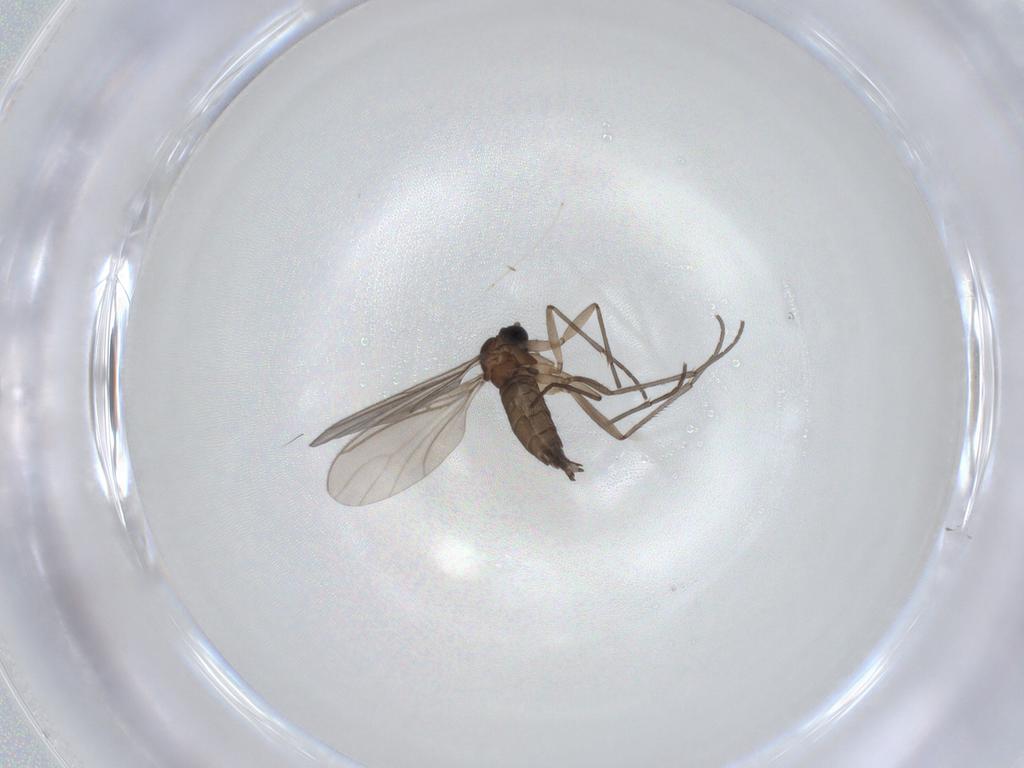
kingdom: Animalia
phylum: Arthropoda
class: Insecta
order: Diptera
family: Sciaridae
